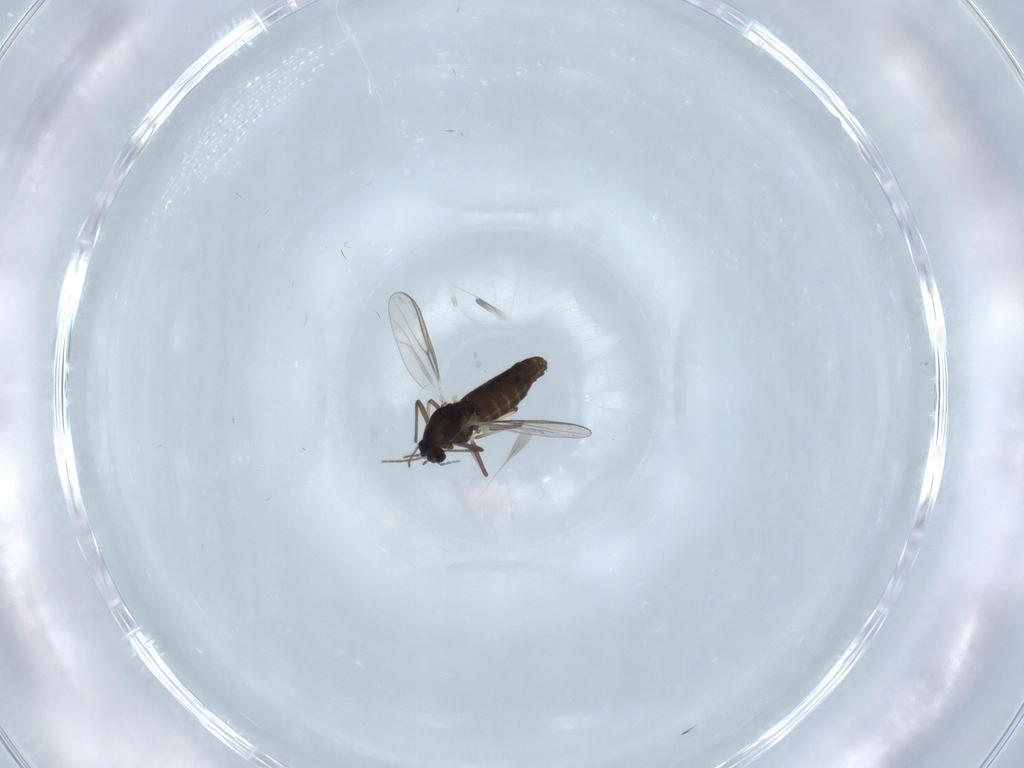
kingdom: Animalia
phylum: Arthropoda
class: Insecta
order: Diptera
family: Chironomidae
